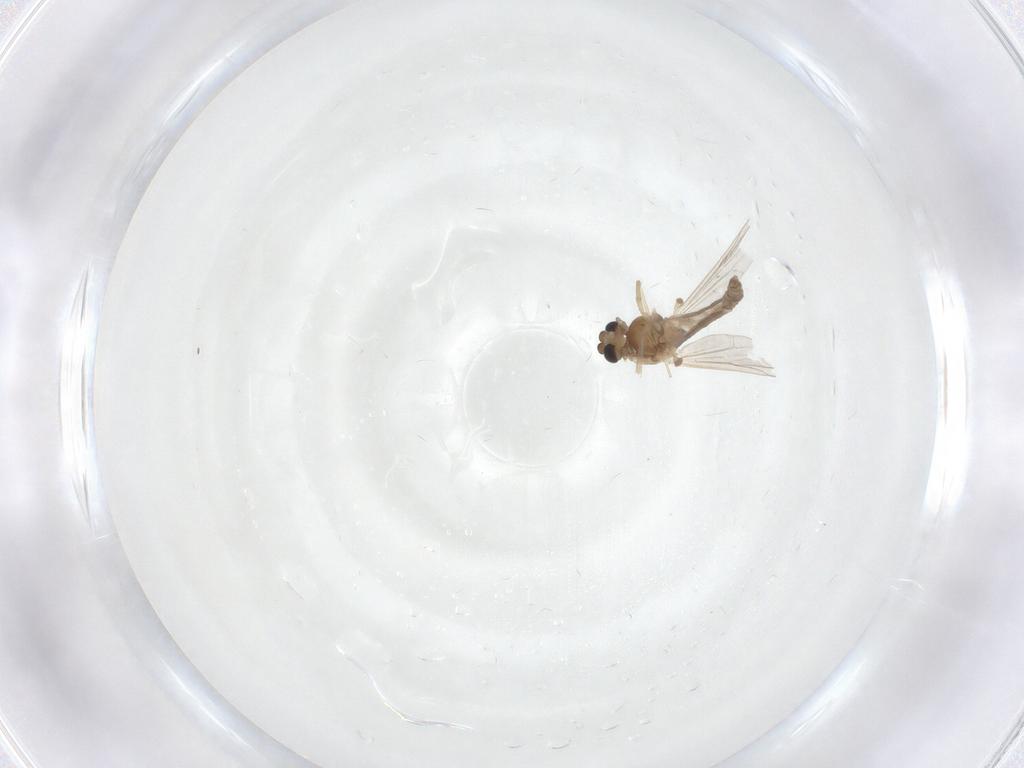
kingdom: Animalia
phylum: Arthropoda
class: Insecta
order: Diptera
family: Chironomidae
